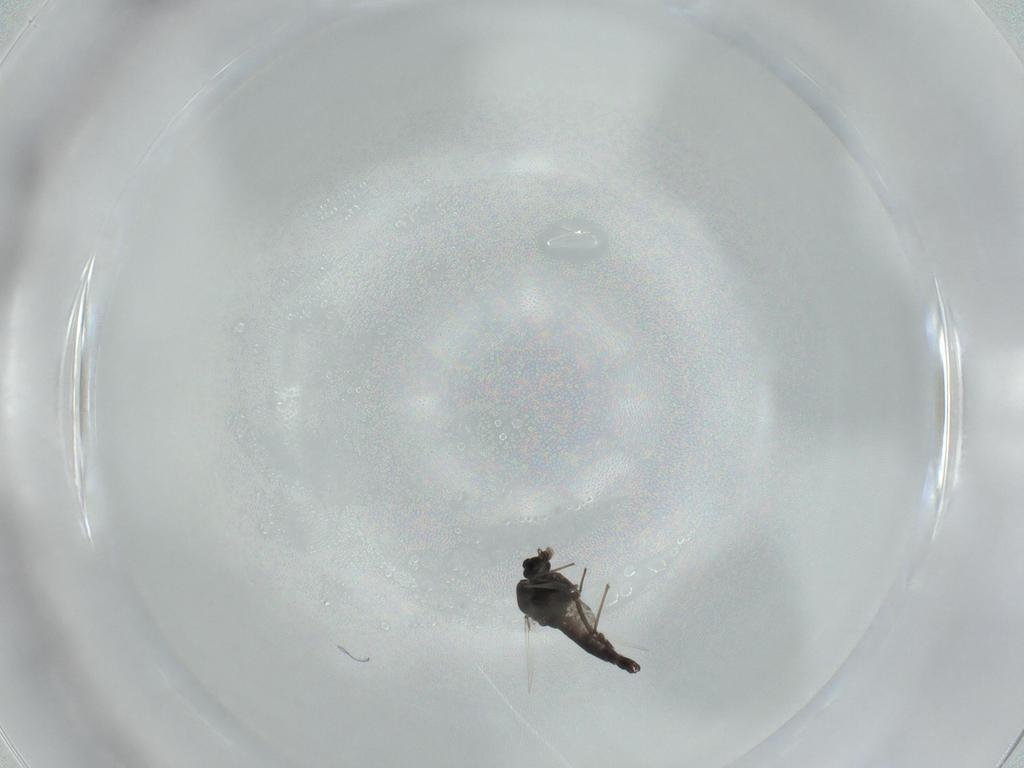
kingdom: Animalia
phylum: Arthropoda
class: Insecta
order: Diptera
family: Chironomidae
